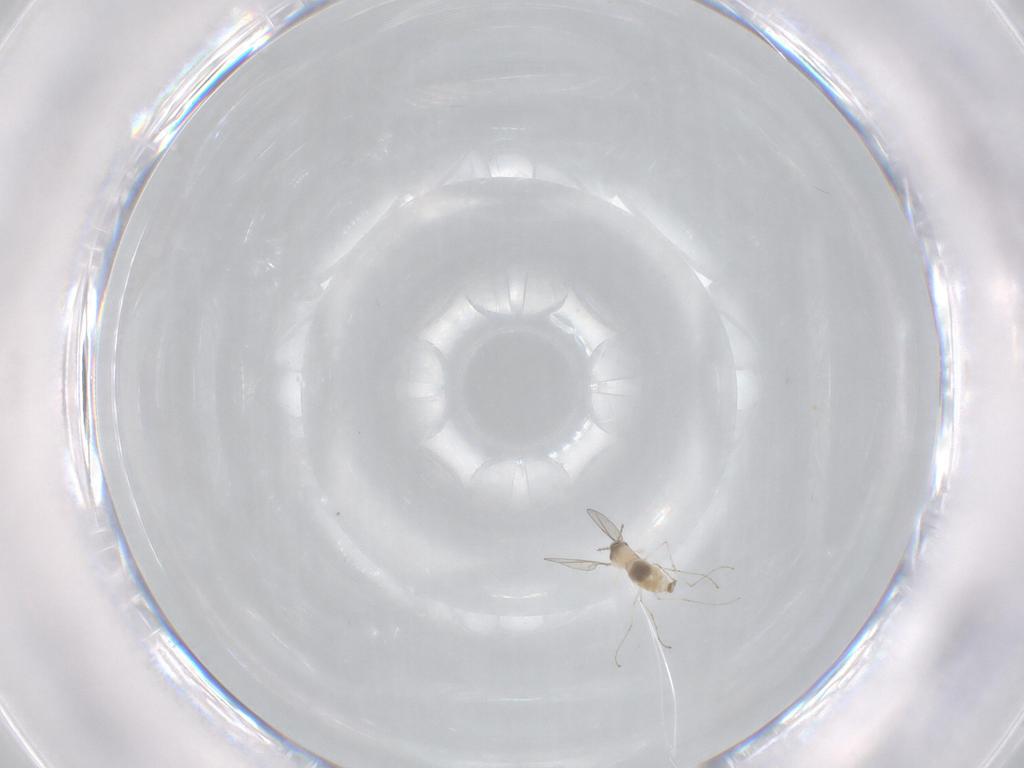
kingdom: Animalia
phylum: Arthropoda
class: Insecta
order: Diptera
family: Cecidomyiidae
